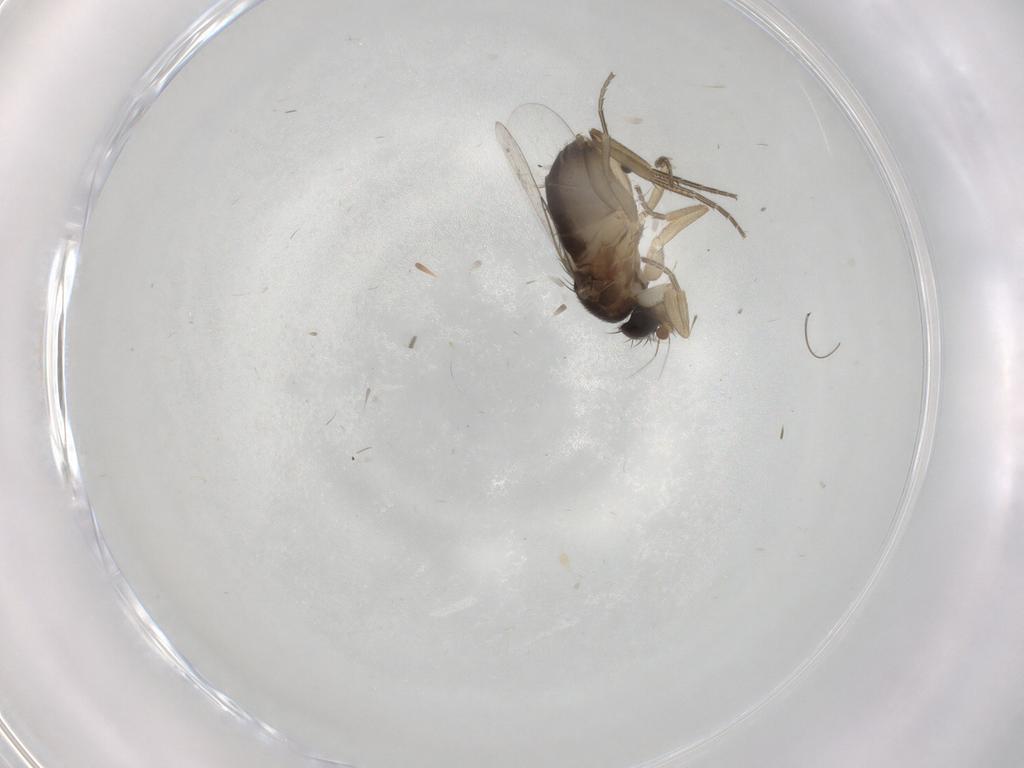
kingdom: Animalia
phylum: Arthropoda
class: Insecta
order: Diptera
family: Phoridae
